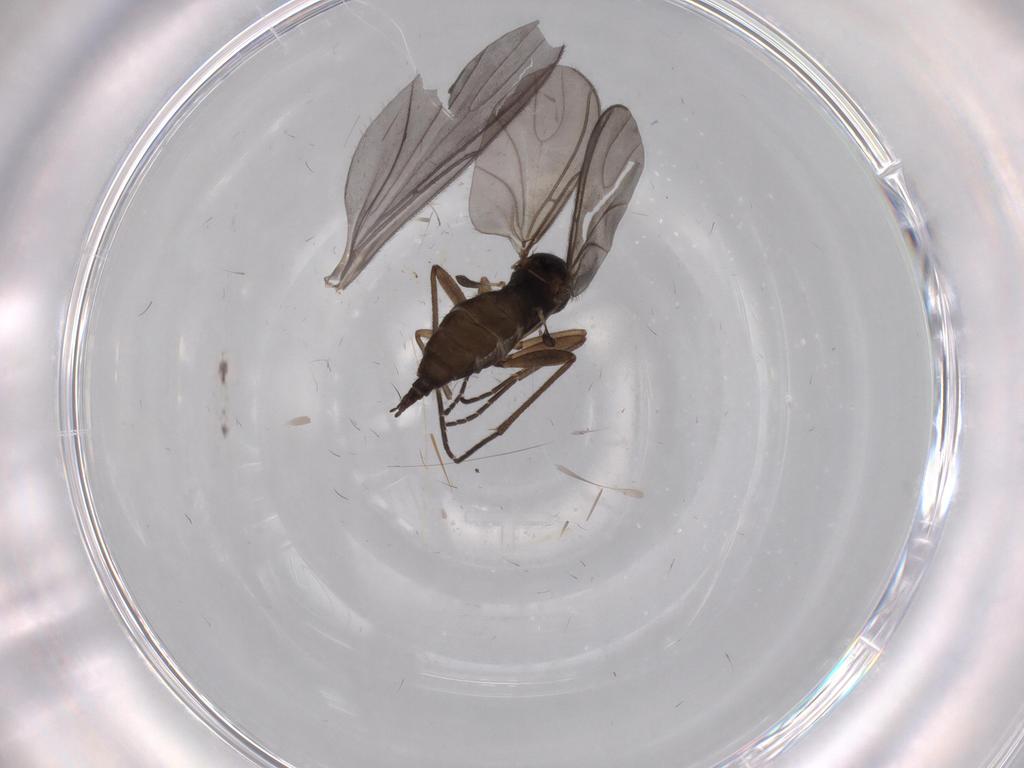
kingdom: Animalia
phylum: Arthropoda
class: Insecta
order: Diptera
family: Sciaridae
